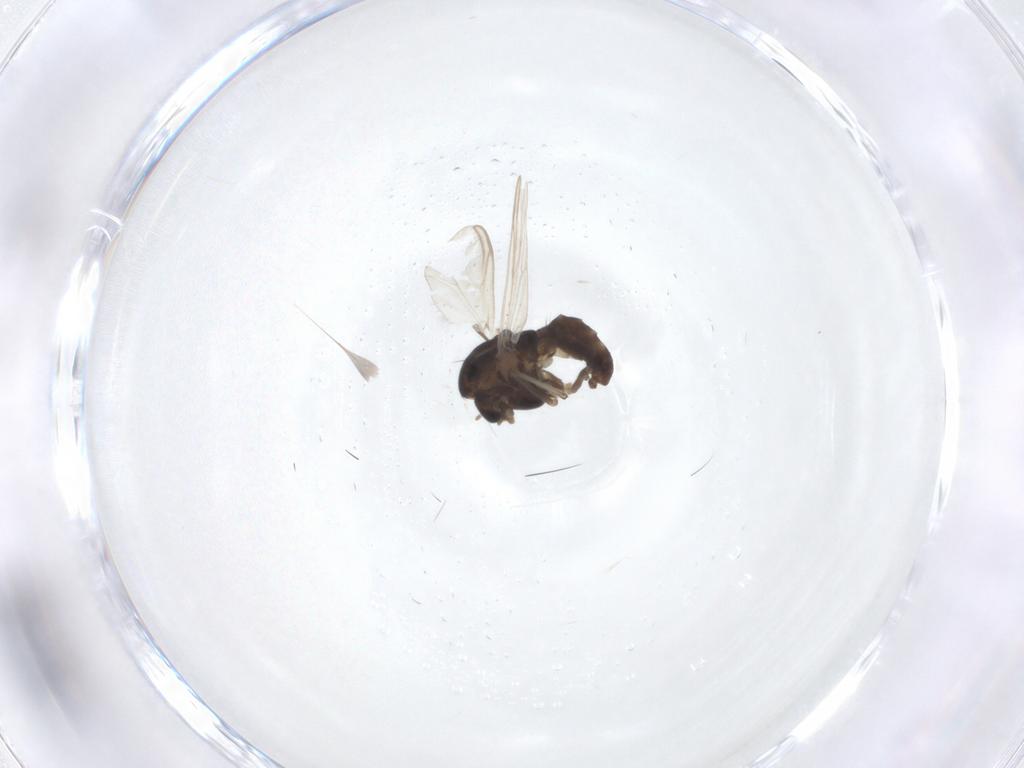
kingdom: Animalia
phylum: Arthropoda
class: Insecta
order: Diptera
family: Chironomidae
